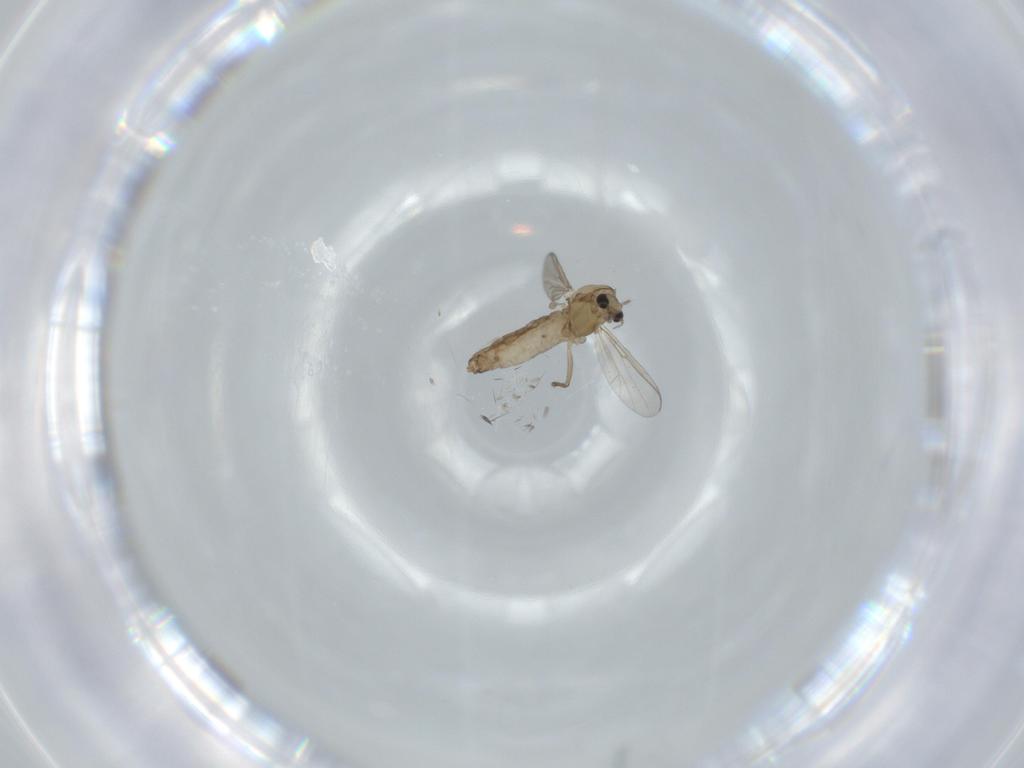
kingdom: Animalia
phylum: Arthropoda
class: Insecta
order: Diptera
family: Chironomidae
